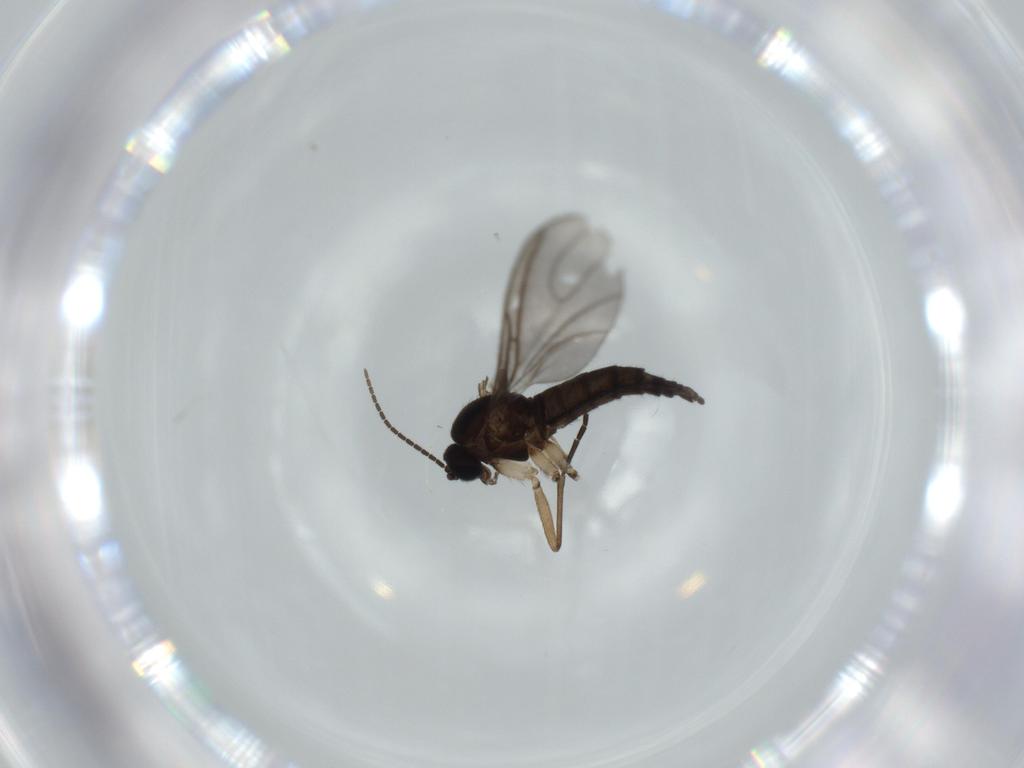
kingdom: Animalia
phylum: Arthropoda
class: Insecta
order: Diptera
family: Sciaridae
